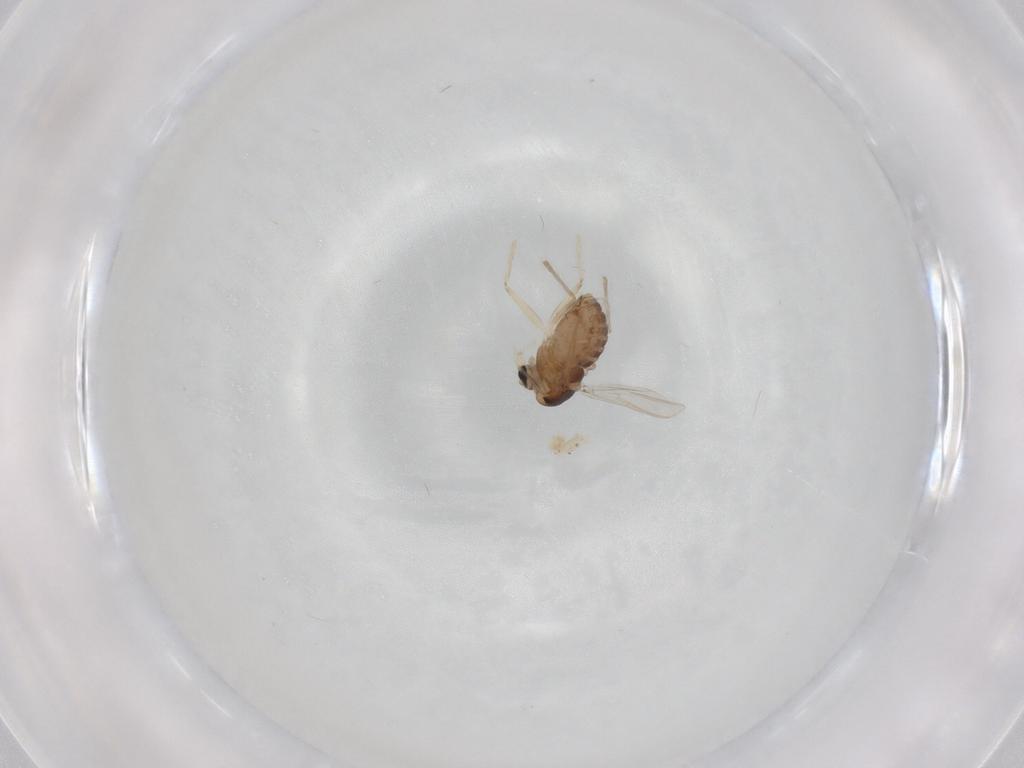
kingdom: Animalia
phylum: Arthropoda
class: Insecta
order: Diptera
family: Chironomidae
